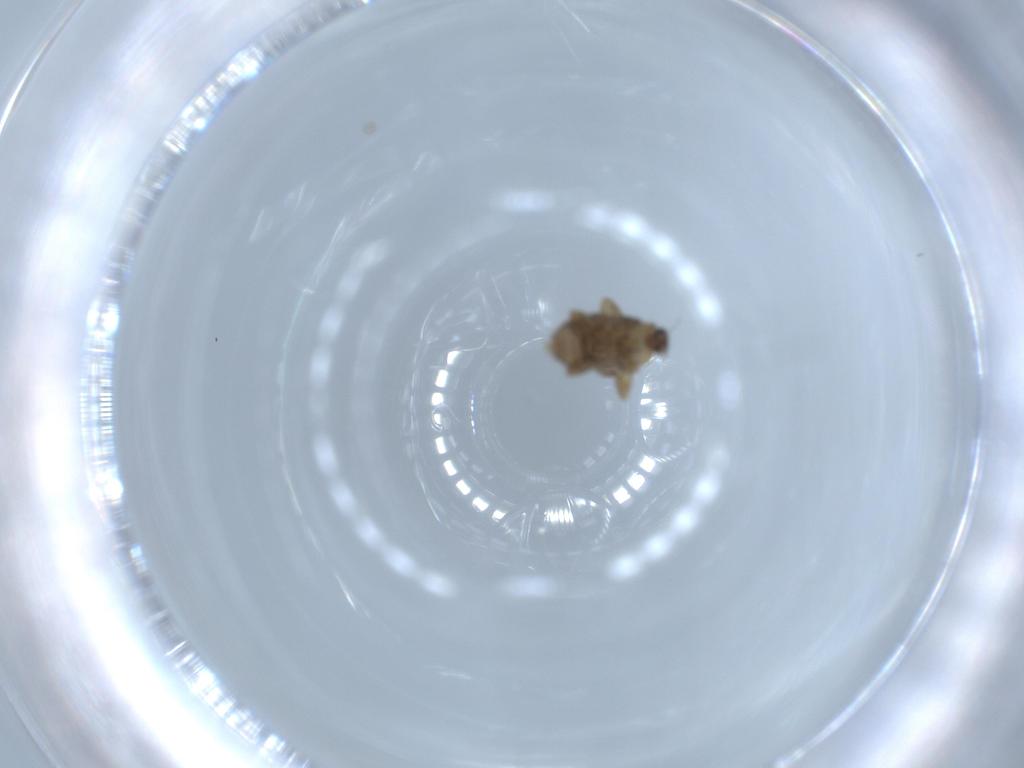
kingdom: Animalia
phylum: Arthropoda
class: Insecta
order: Diptera
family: Phoridae
